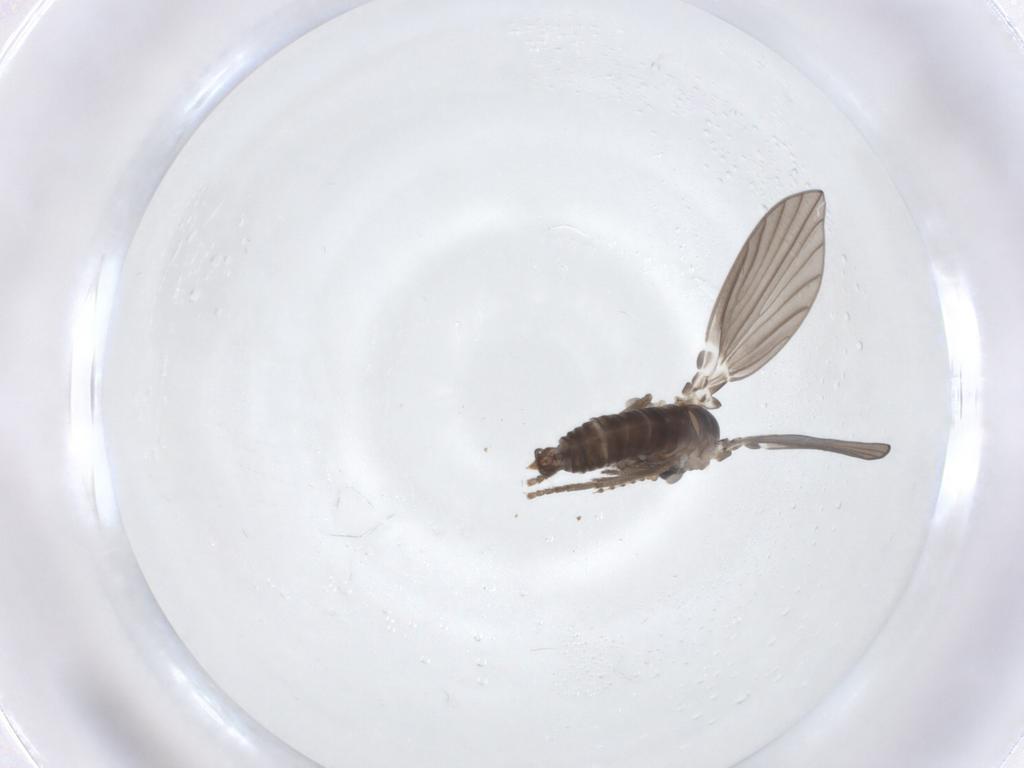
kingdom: Animalia
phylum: Arthropoda
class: Insecta
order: Diptera
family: Psychodidae
